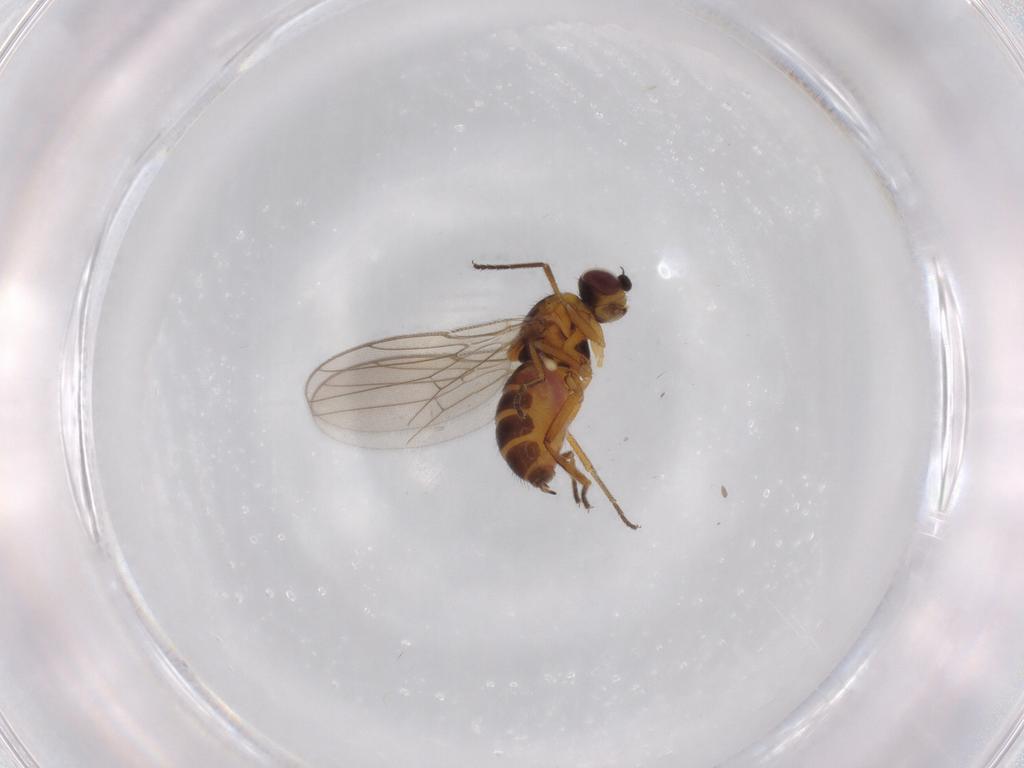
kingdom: Animalia
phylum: Arthropoda
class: Insecta
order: Diptera
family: Chloropidae
